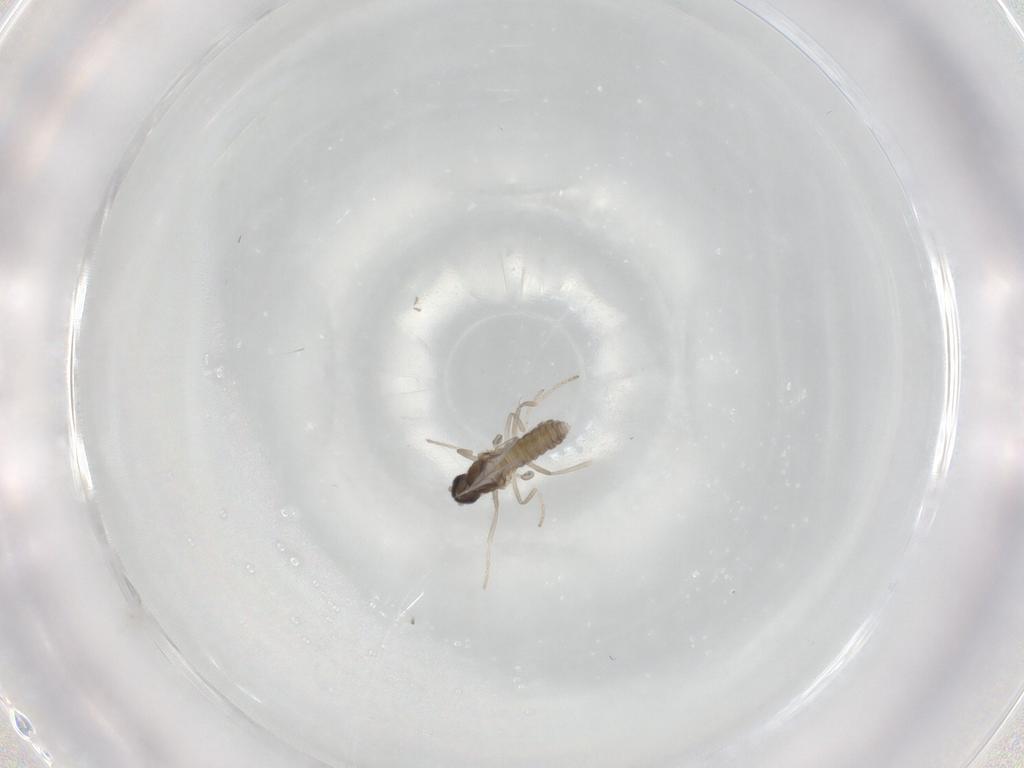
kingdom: Animalia
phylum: Arthropoda
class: Insecta
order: Diptera
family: Cecidomyiidae
